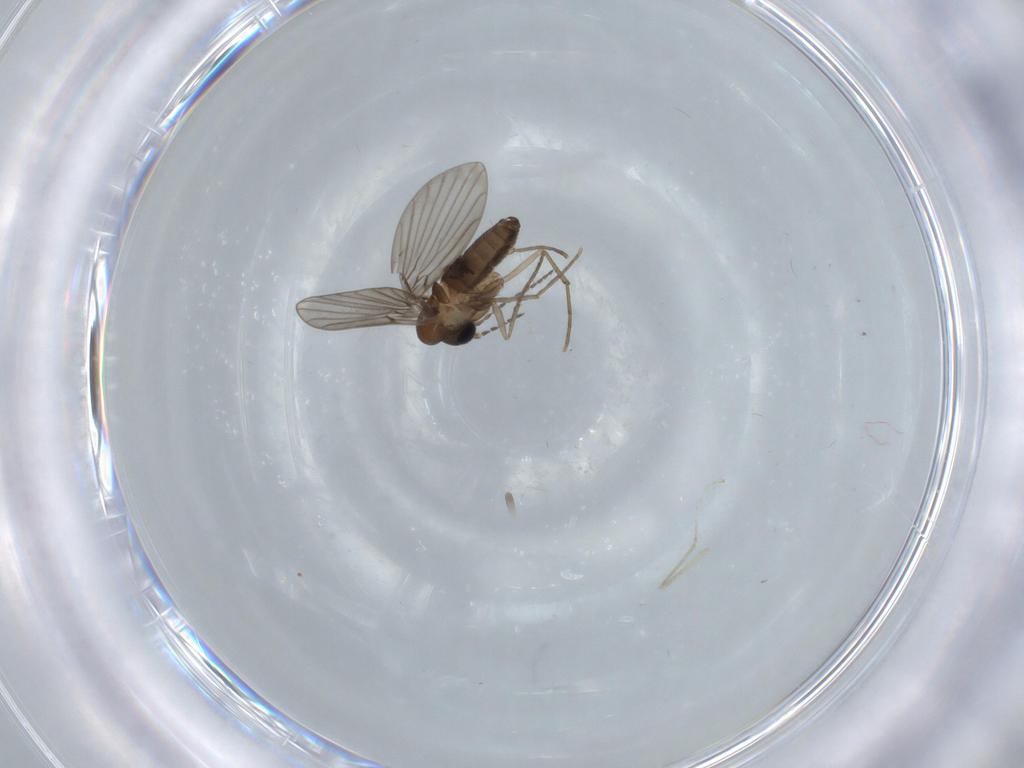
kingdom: Animalia
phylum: Arthropoda
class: Insecta
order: Diptera
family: Psychodidae
